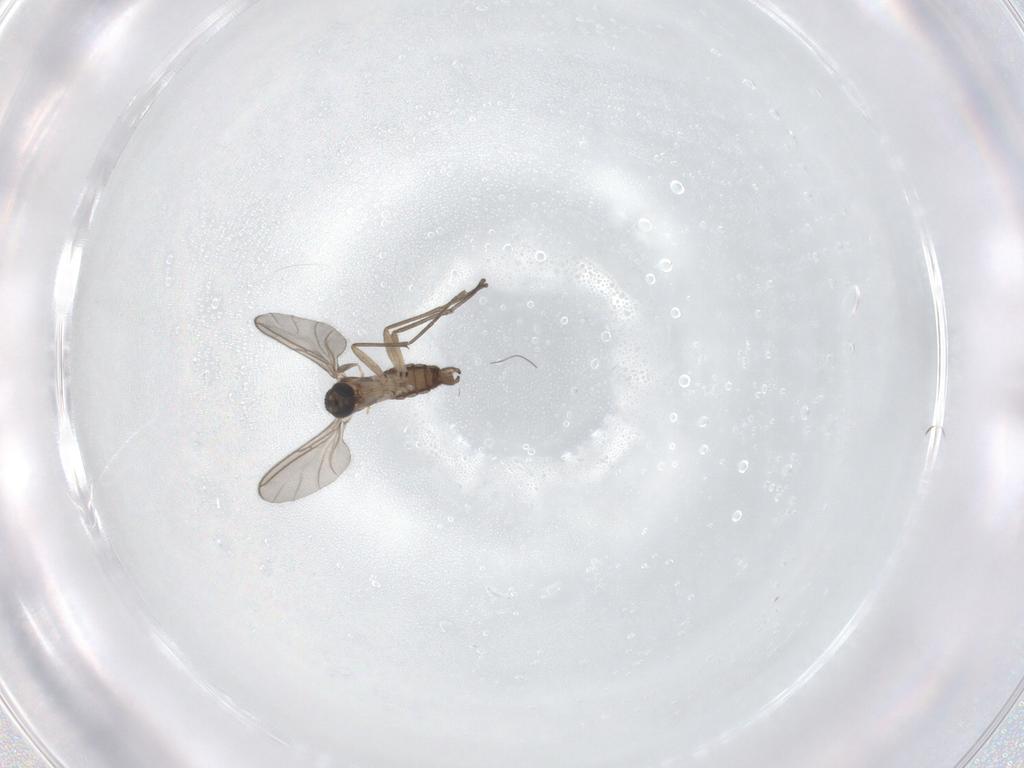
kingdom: Animalia
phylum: Arthropoda
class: Insecta
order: Diptera
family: Sciaridae
